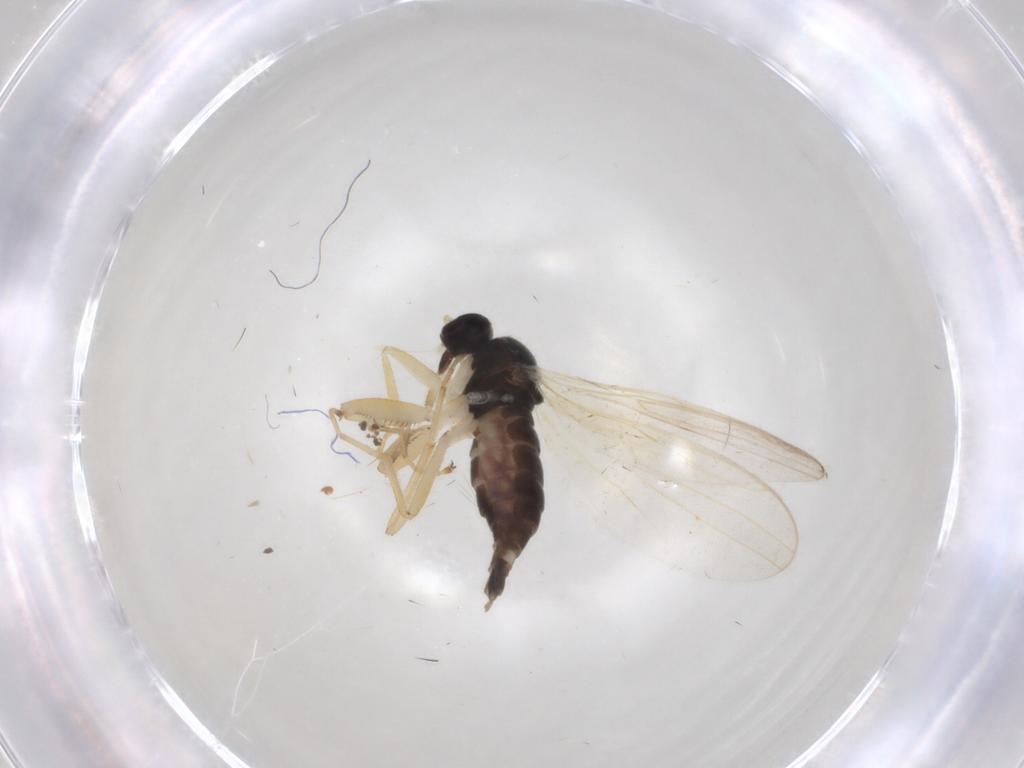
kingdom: Animalia
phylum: Arthropoda
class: Insecta
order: Diptera
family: Hybotidae
